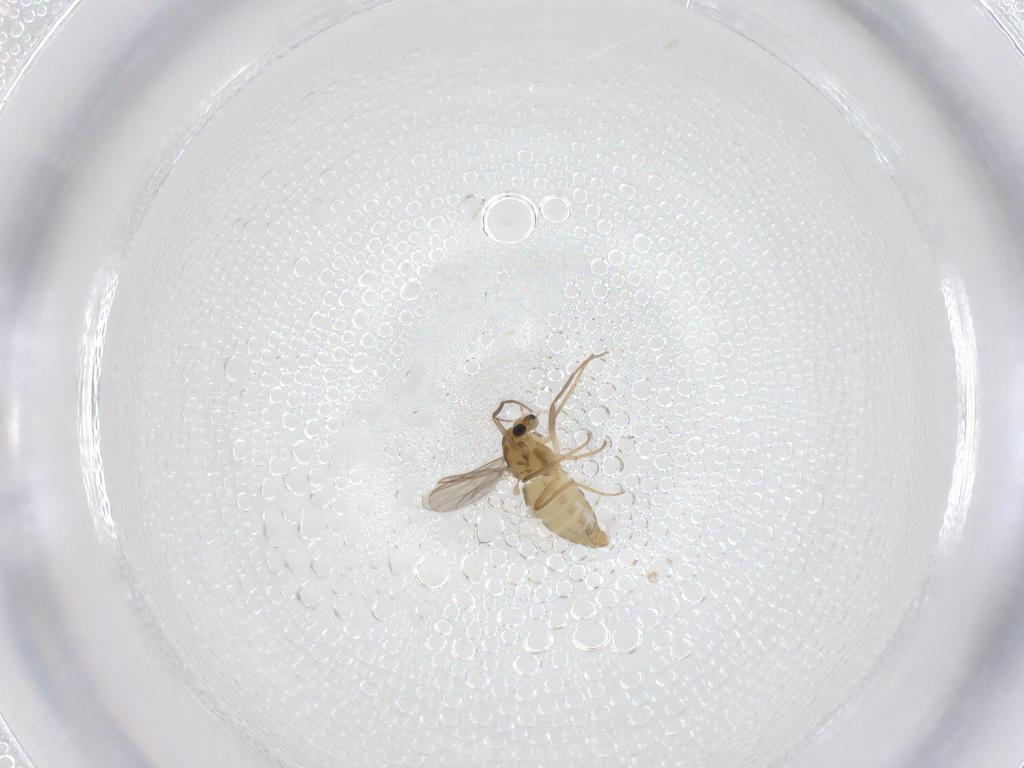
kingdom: Animalia
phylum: Arthropoda
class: Insecta
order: Diptera
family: Chironomidae
